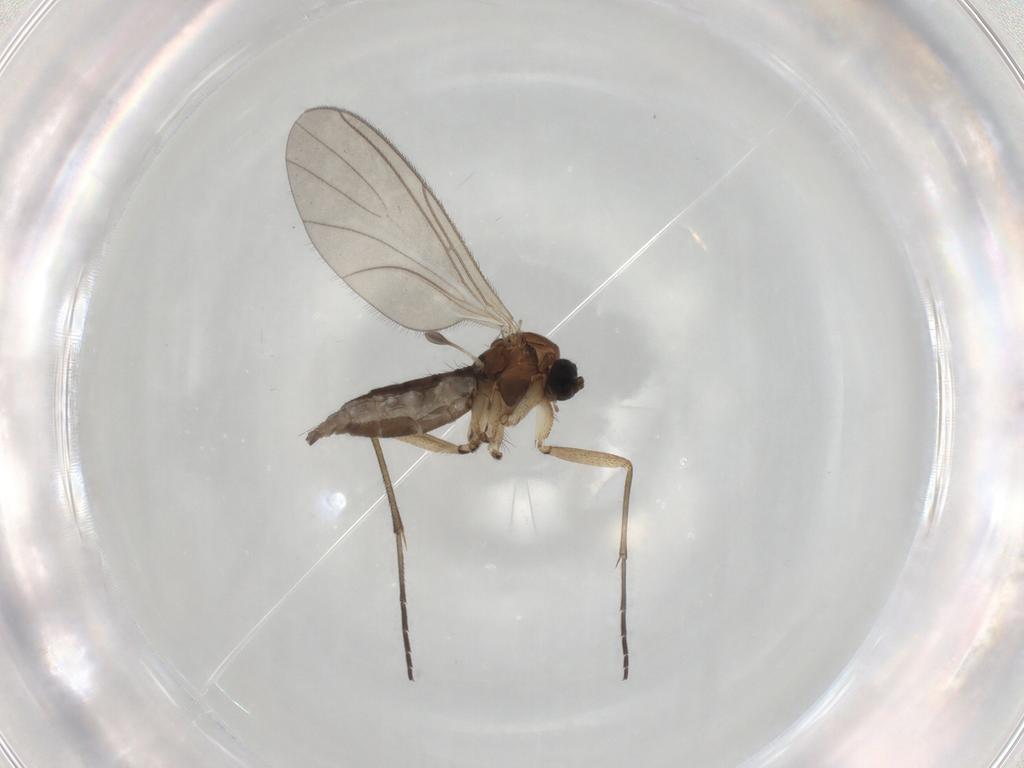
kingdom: Animalia
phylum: Arthropoda
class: Insecta
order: Diptera
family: Sciaridae
